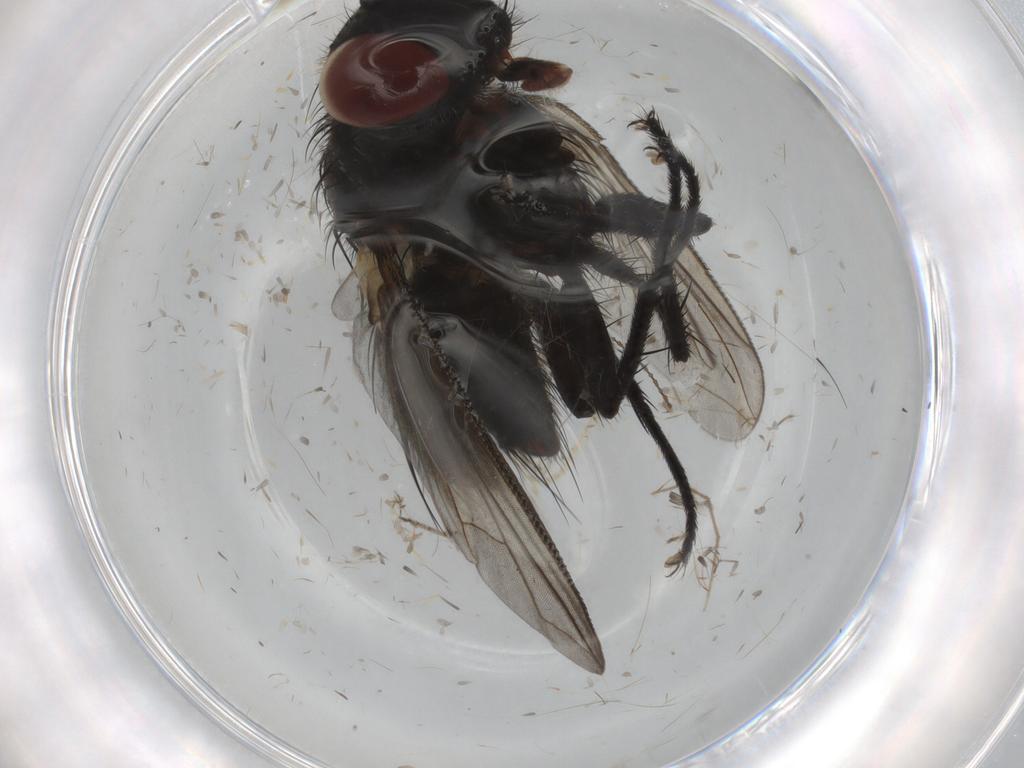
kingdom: Animalia
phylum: Arthropoda
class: Insecta
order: Diptera
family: Tachinidae
